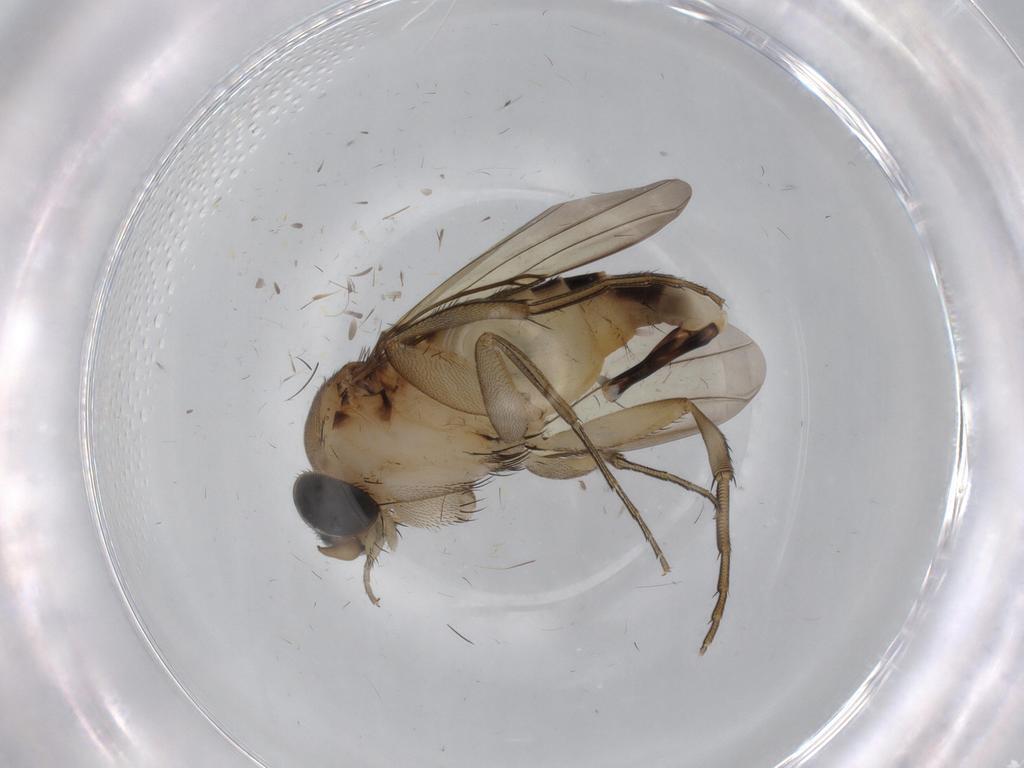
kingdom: Animalia
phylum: Arthropoda
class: Insecta
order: Diptera
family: Phoridae
